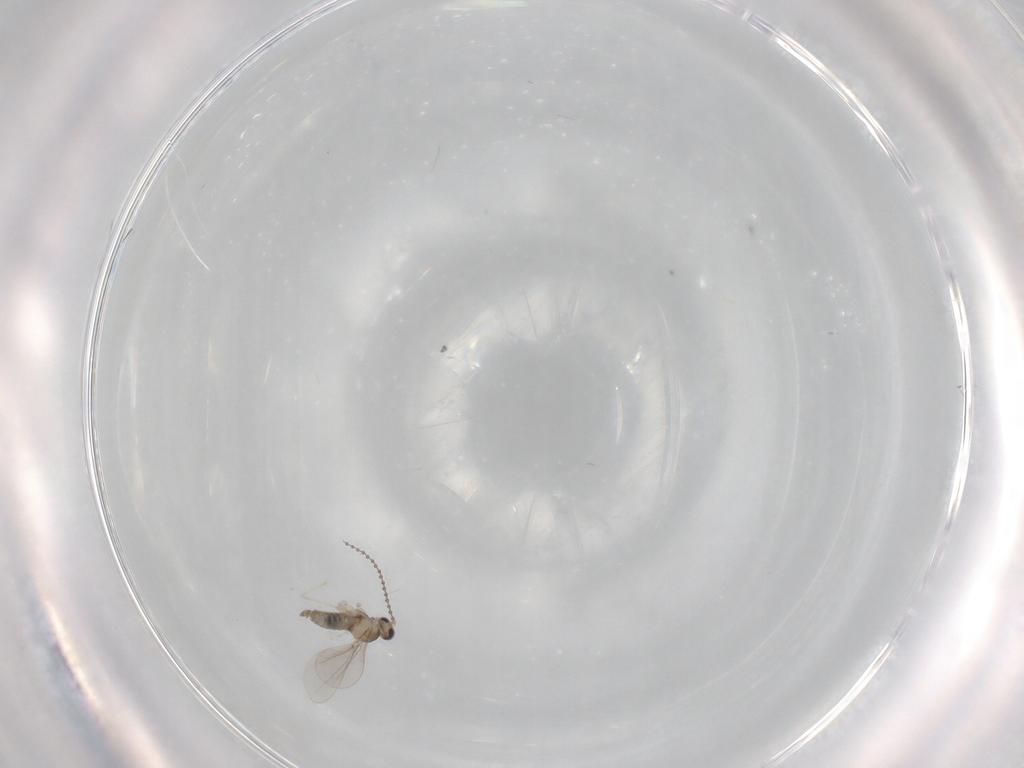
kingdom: Animalia
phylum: Arthropoda
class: Insecta
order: Diptera
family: Cecidomyiidae
